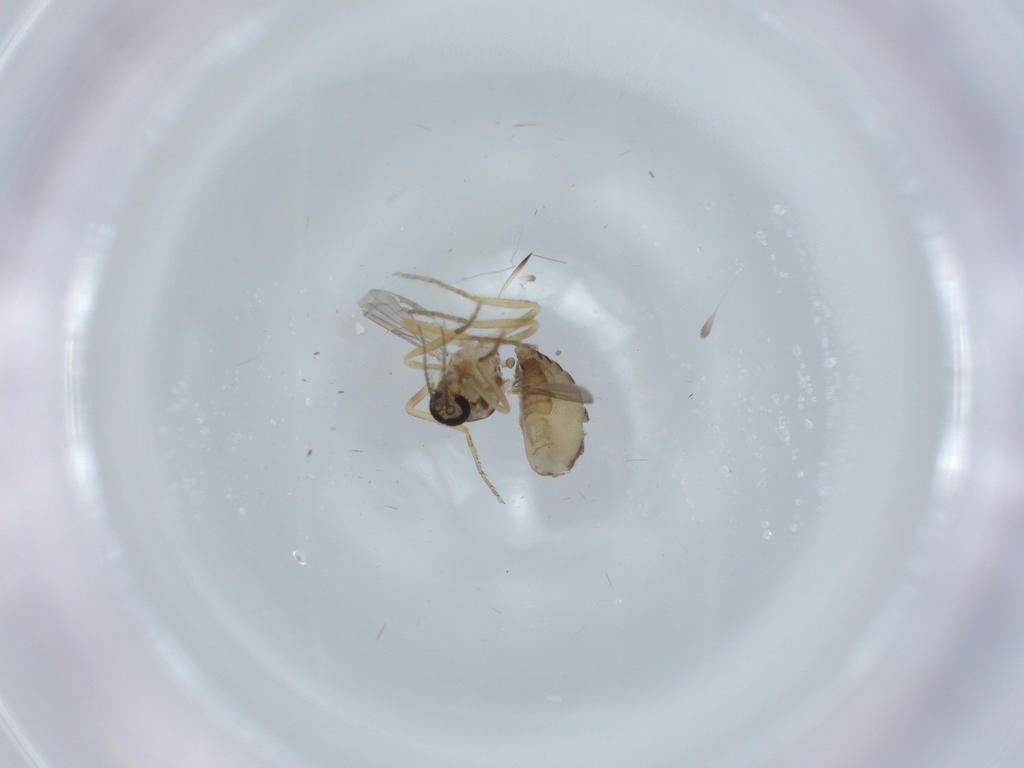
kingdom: Animalia
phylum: Arthropoda
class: Insecta
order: Diptera
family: Ceratopogonidae
